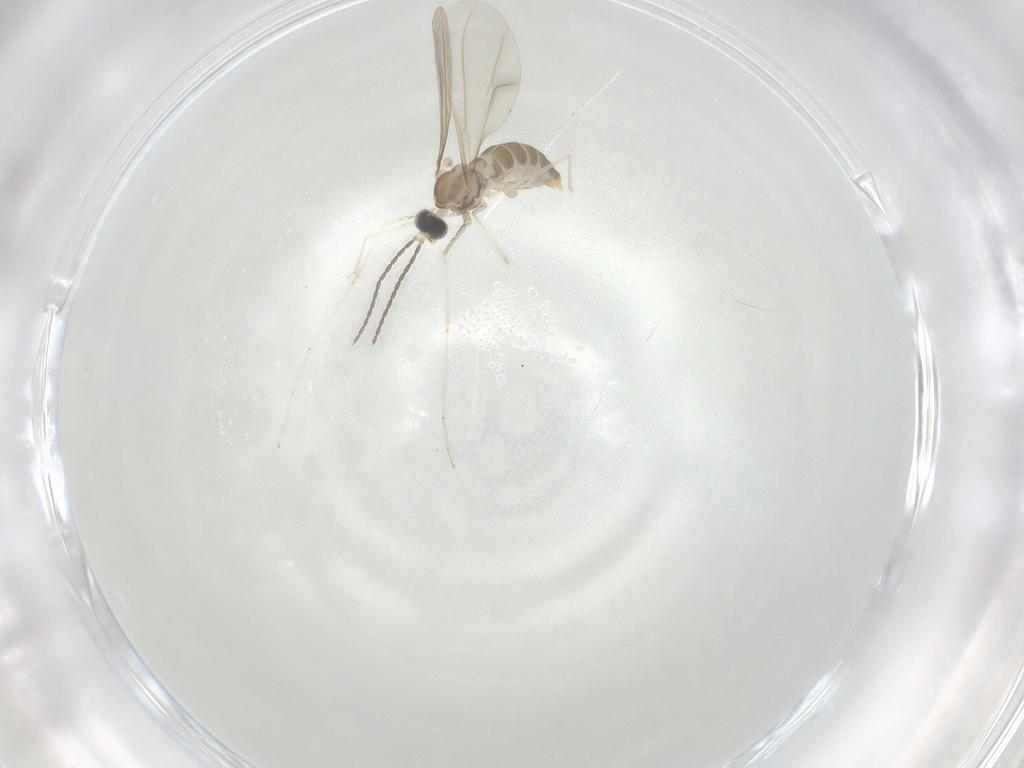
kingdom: Animalia
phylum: Arthropoda
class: Insecta
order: Diptera
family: Cecidomyiidae
